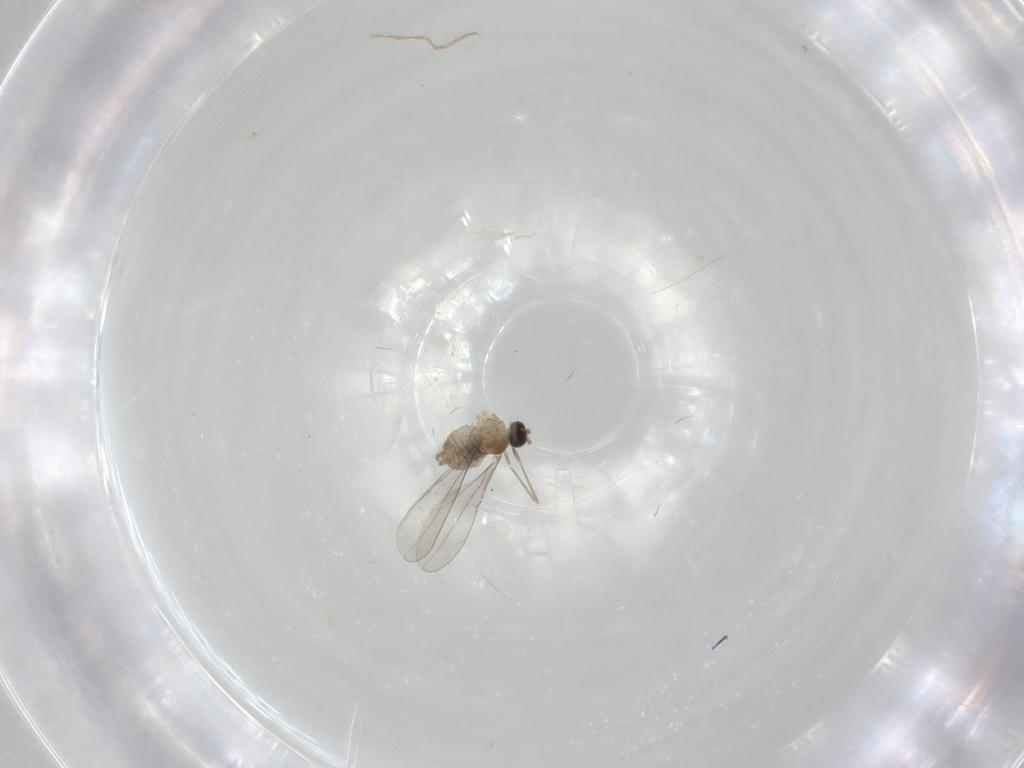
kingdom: Animalia
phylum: Arthropoda
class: Insecta
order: Diptera
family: Cecidomyiidae
